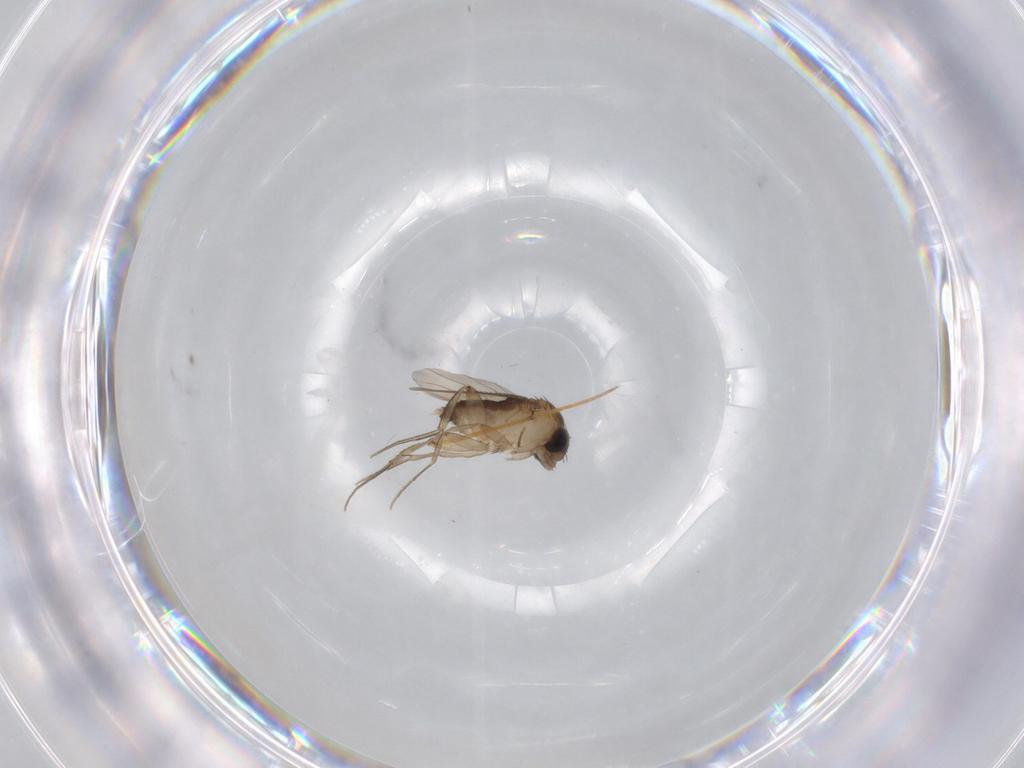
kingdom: Animalia
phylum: Arthropoda
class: Insecta
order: Diptera
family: Phoridae
